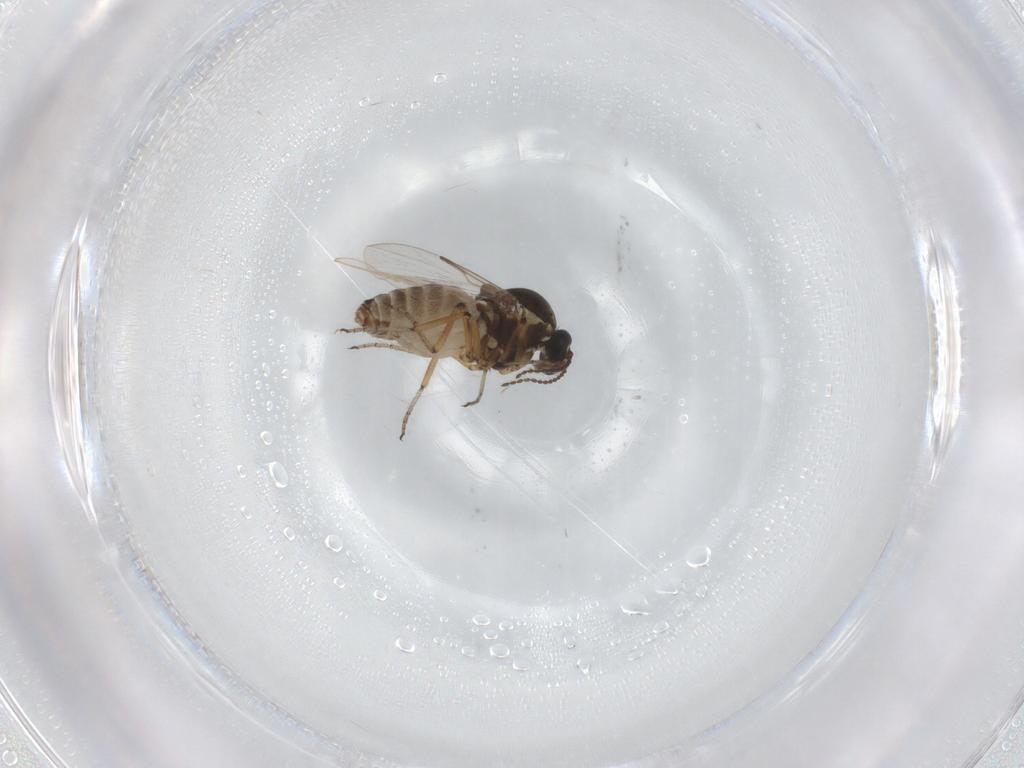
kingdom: Animalia
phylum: Arthropoda
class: Insecta
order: Diptera
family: Ceratopogonidae
